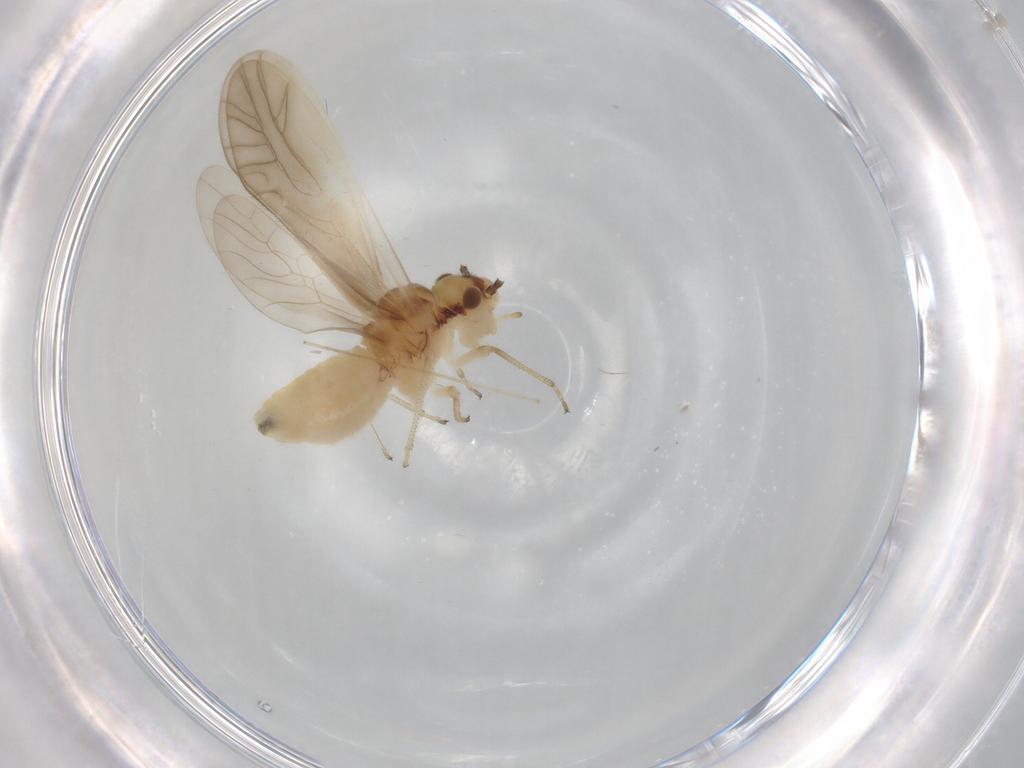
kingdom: Animalia
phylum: Arthropoda
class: Insecta
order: Psocodea
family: Caeciliusidae
